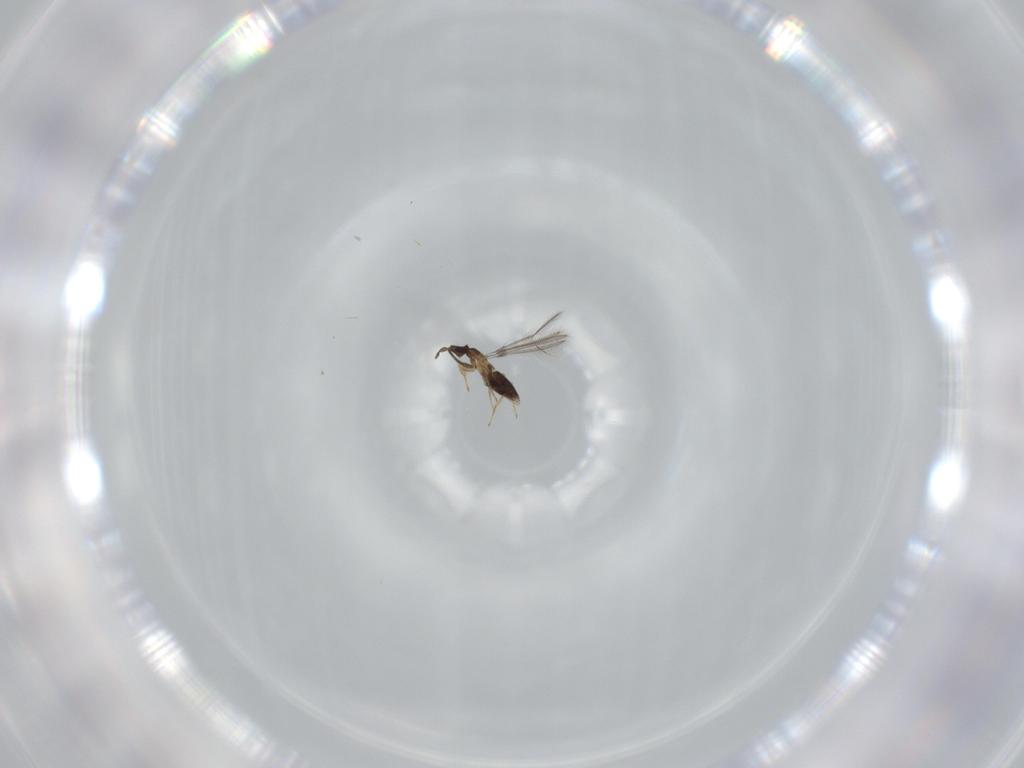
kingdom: Animalia
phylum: Arthropoda
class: Insecta
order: Hymenoptera
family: Mymaridae
